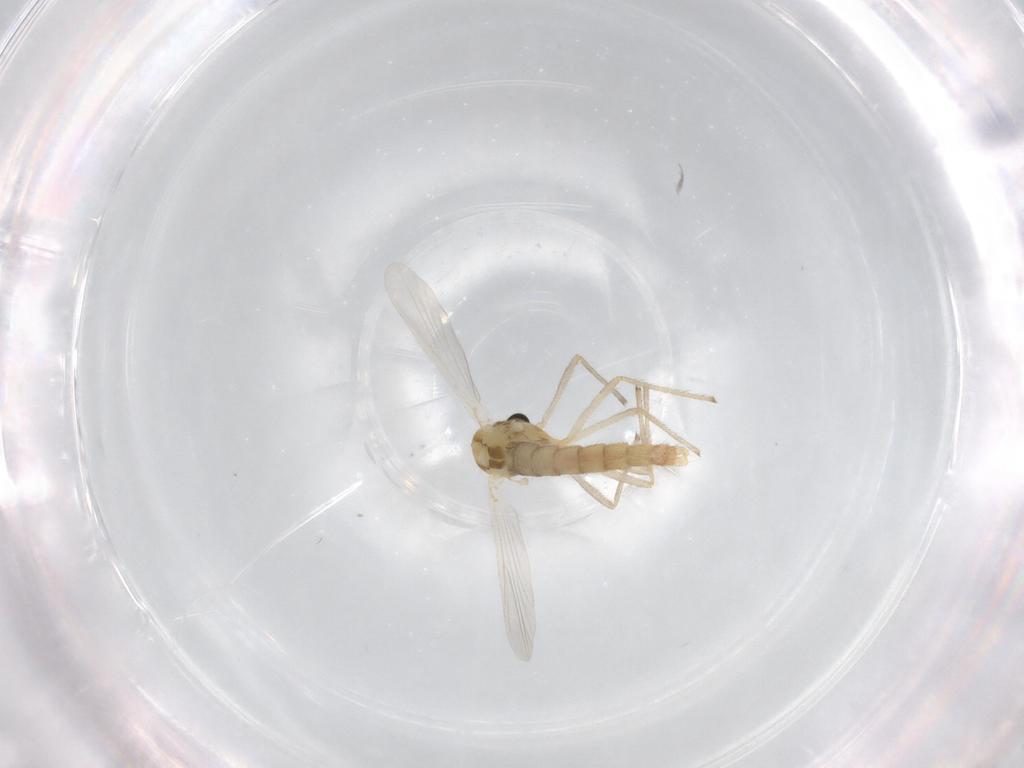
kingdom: Animalia
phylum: Arthropoda
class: Insecta
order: Diptera
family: Chironomidae
